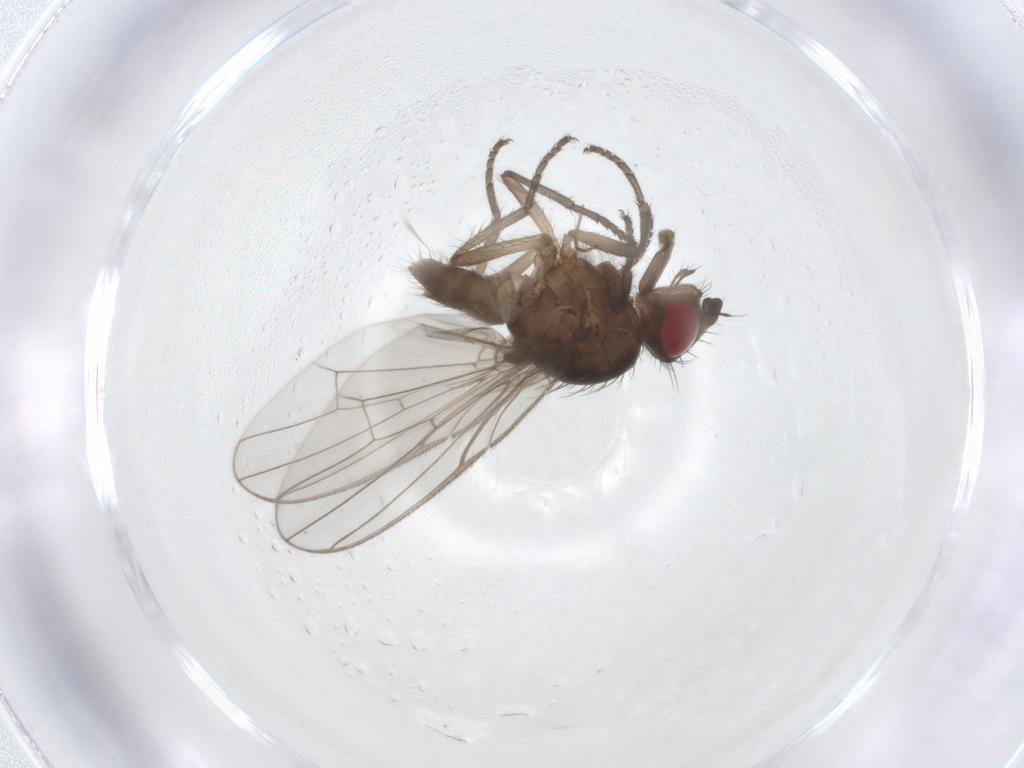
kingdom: Animalia
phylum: Arthropoda
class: Insecta
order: Diptera
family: Anthomyiidae
